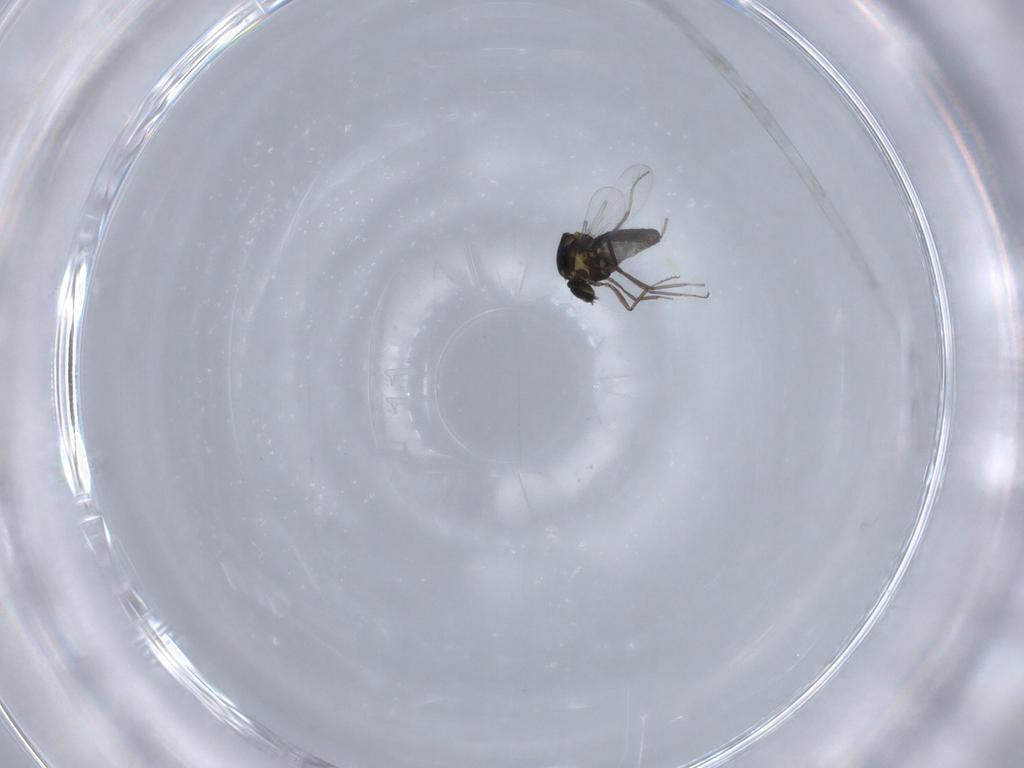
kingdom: Animalia
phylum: Arthropoda
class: Insecta
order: Diptera
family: Ceratopogonidae
